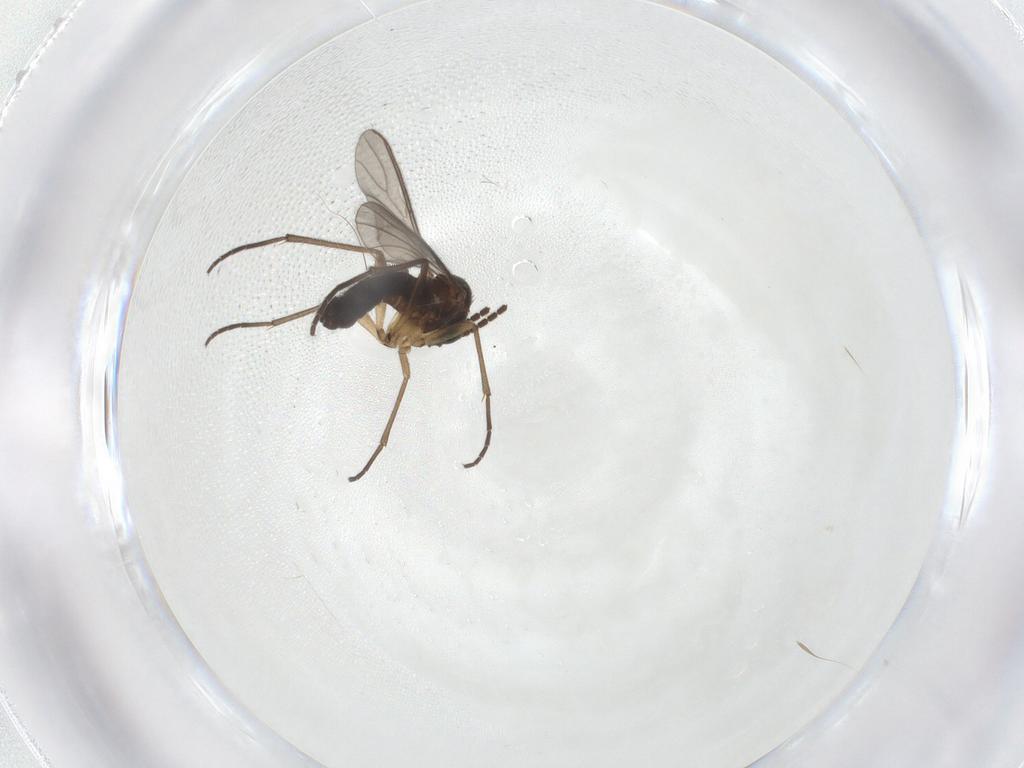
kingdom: Animalia
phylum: Arthropoda
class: Insecta
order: Diptera
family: Sciaridae
